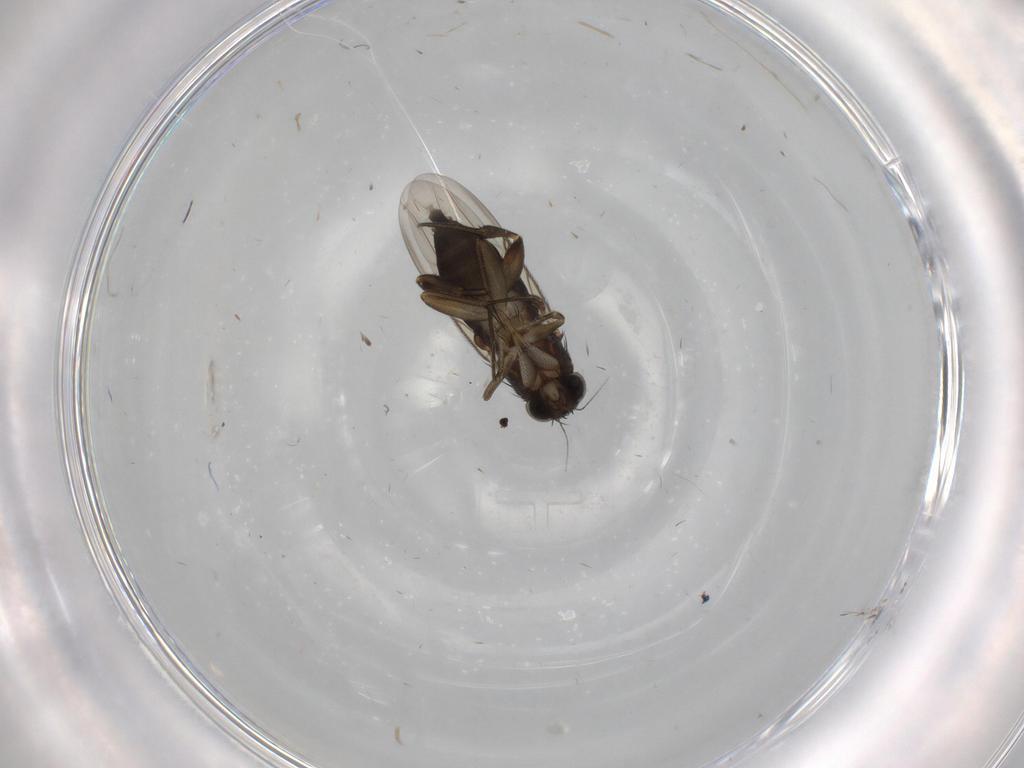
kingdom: Animalia
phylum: Arthropoda
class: Insecta
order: Diptera
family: Phoridae
